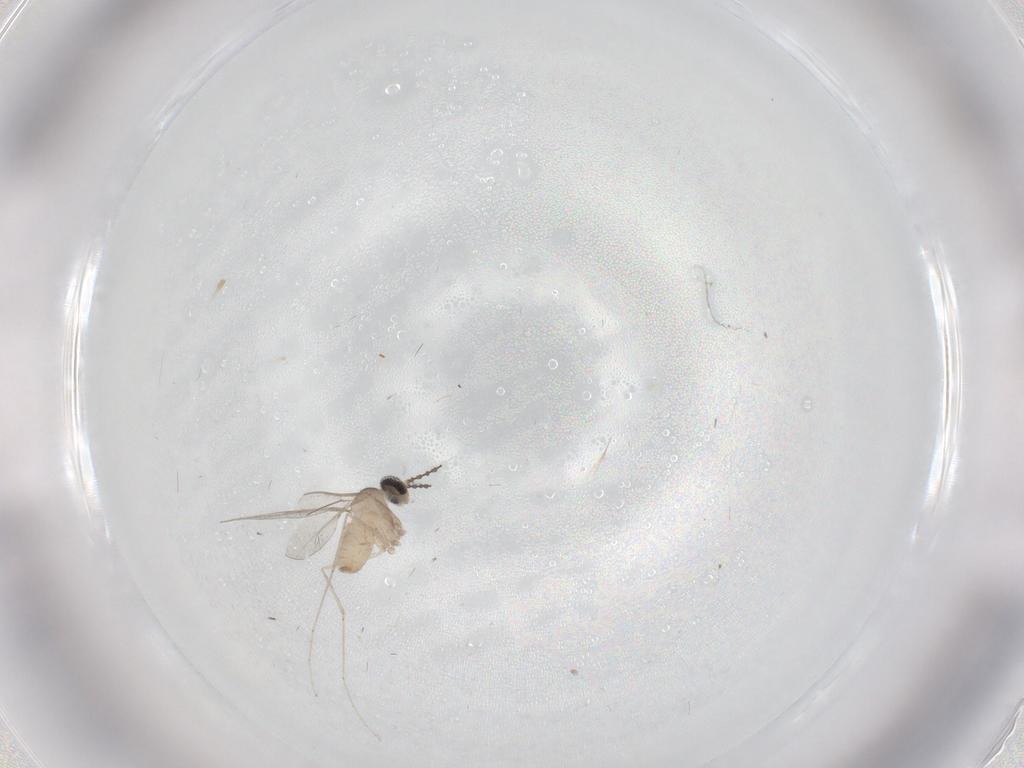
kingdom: Animalia
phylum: Arthropoda
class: Insecta
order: Diptera
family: Cecidomyiidae
